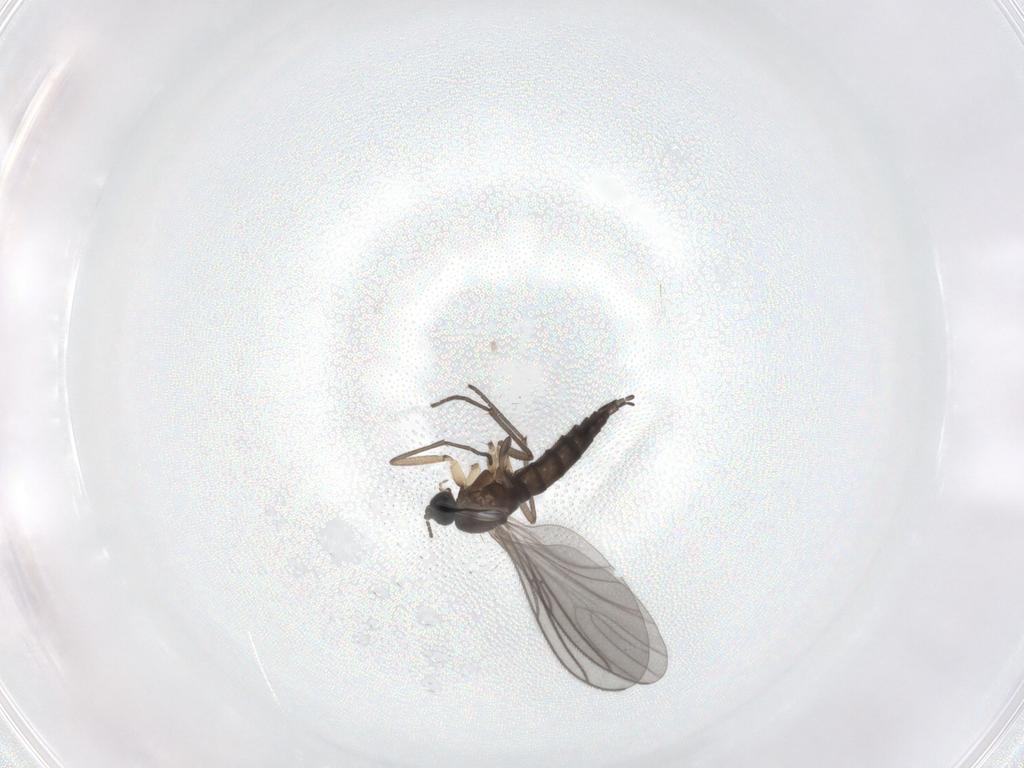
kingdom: Animalia
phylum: Arthropoda
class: Insecta
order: Diptera
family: Sciaridae
